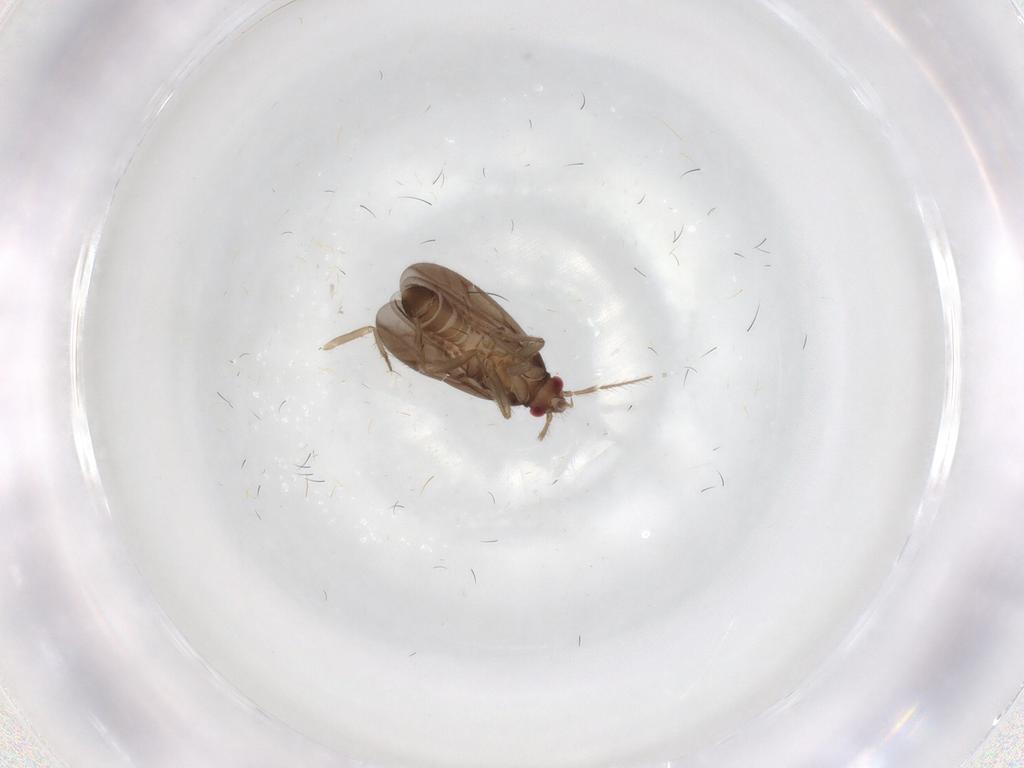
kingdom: Animalia
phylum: Arthropoda
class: Insecta
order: Hemiptera
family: Ceratocombidae
